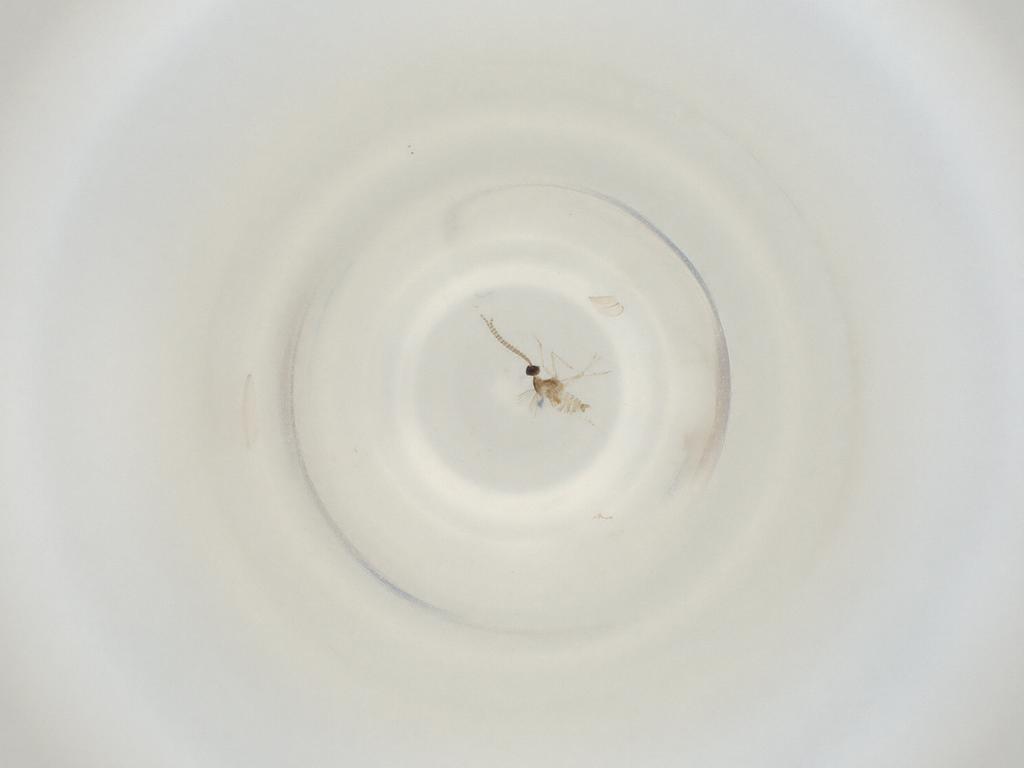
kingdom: Animalia
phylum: Arthropoda
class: Insecta
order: Diptera
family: Cecidomyiidae
